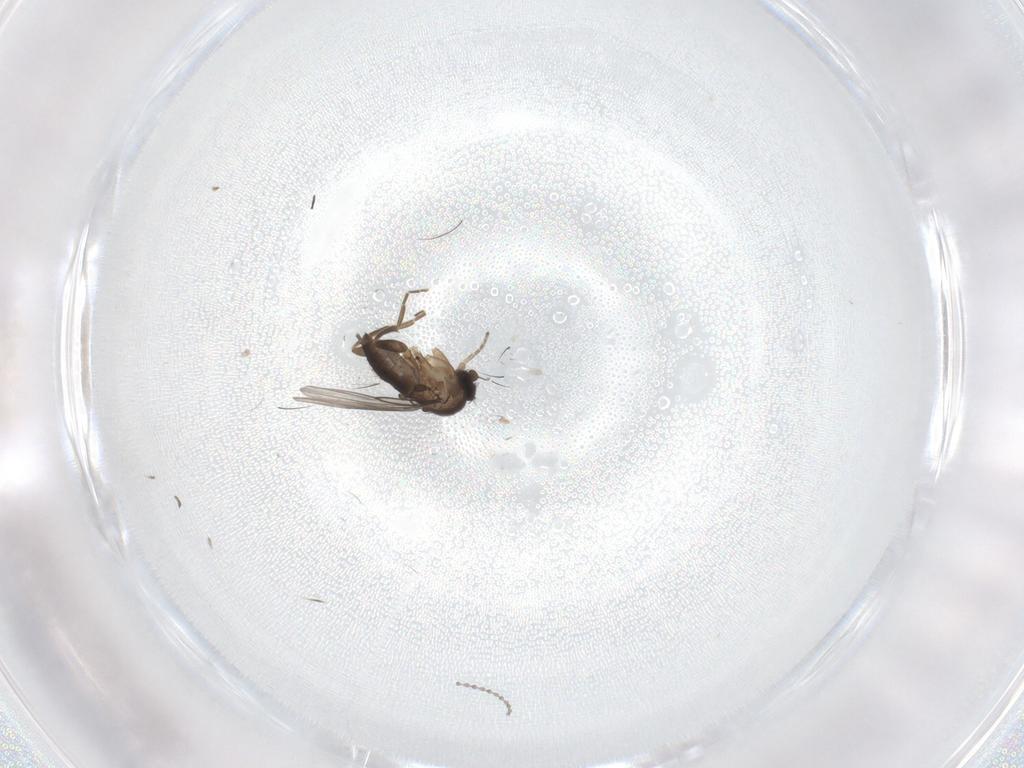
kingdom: Animalia
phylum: Arthropoda
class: Insecta
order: Diptera
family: Phoridae
